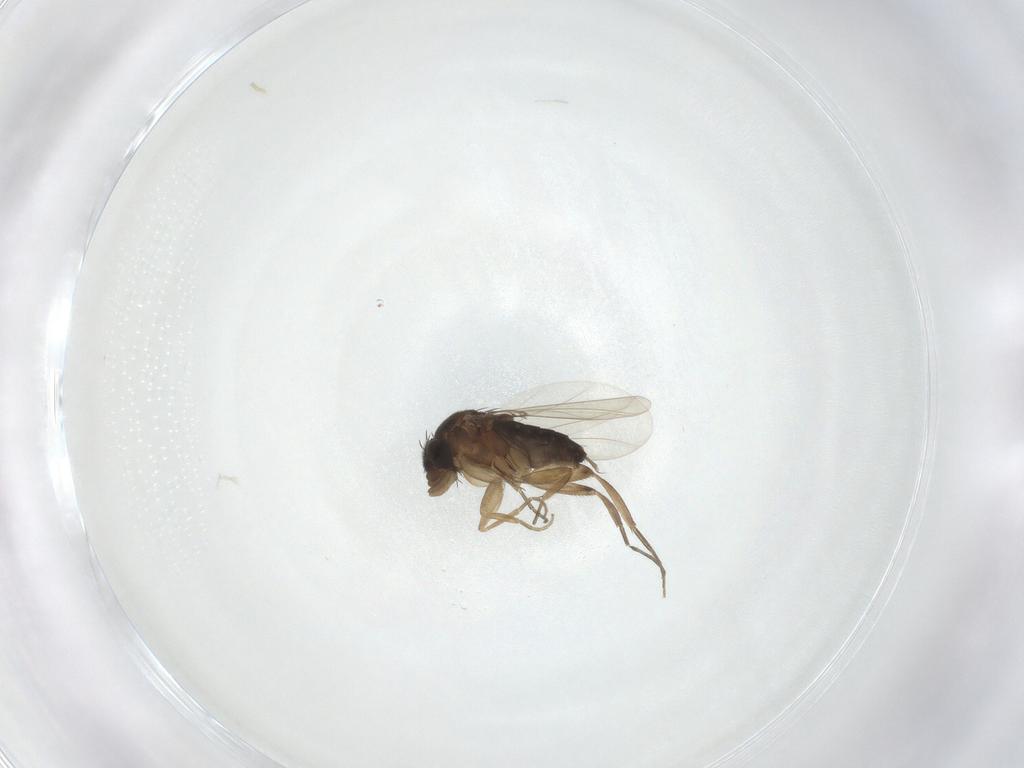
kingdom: Animalia
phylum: Arthropoda
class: Insecta
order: Diptera
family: Phoridae
